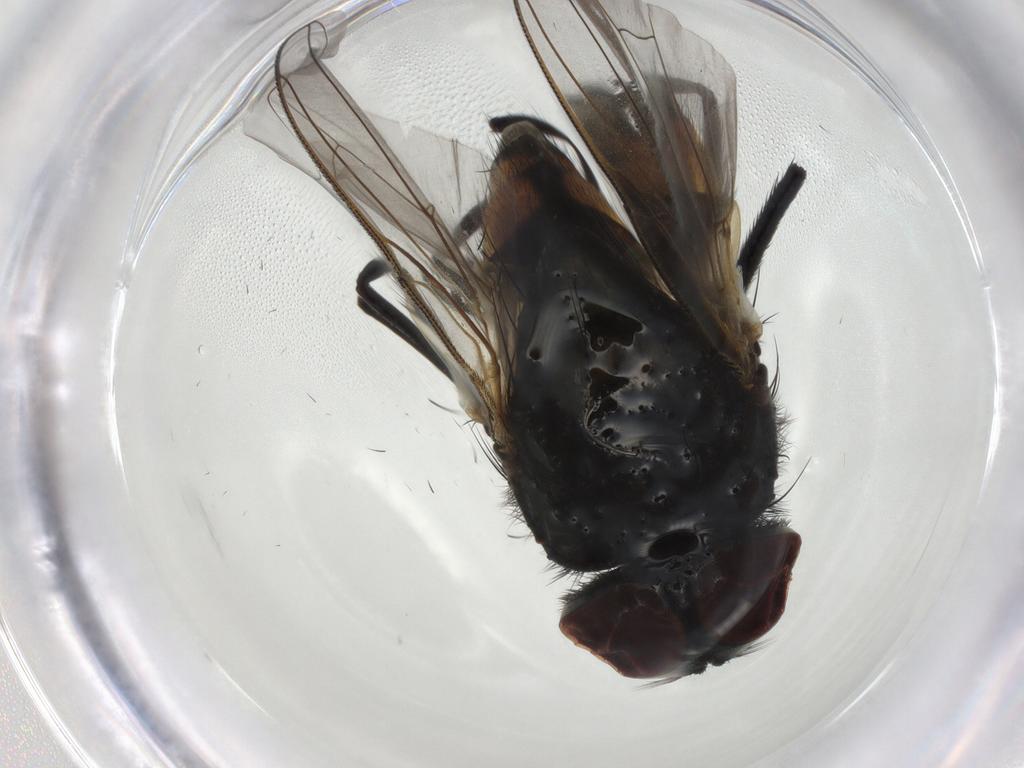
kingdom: Animalia
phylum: Arthropoda
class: Insecta
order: Diptera
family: Muscidae
